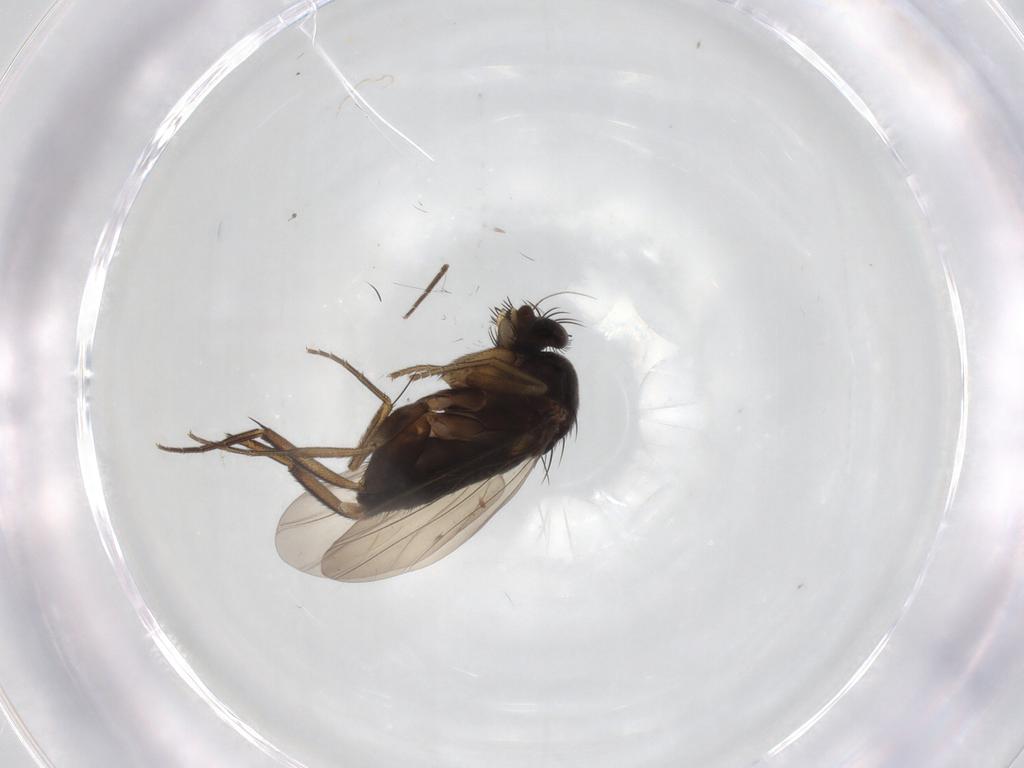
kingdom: Animalia
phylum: Arthropoda
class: Insecta
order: Diptera
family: Phoridae
